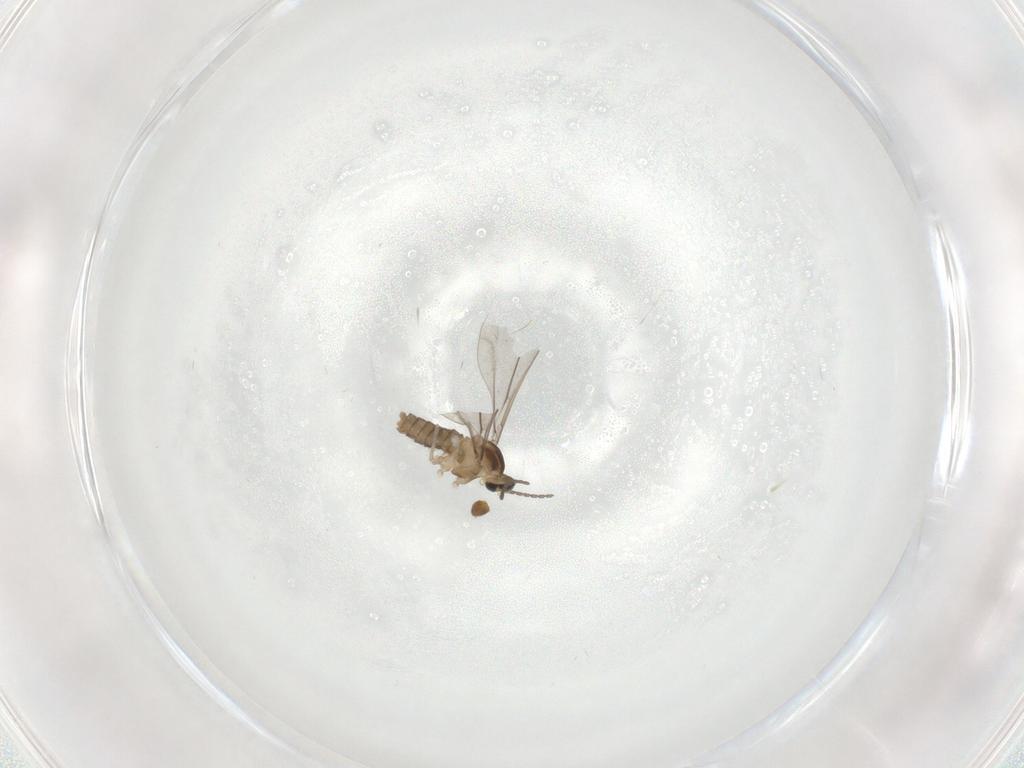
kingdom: Animalia
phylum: Arthropoda
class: Insecta
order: Diptera
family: Cecidomyiidae
